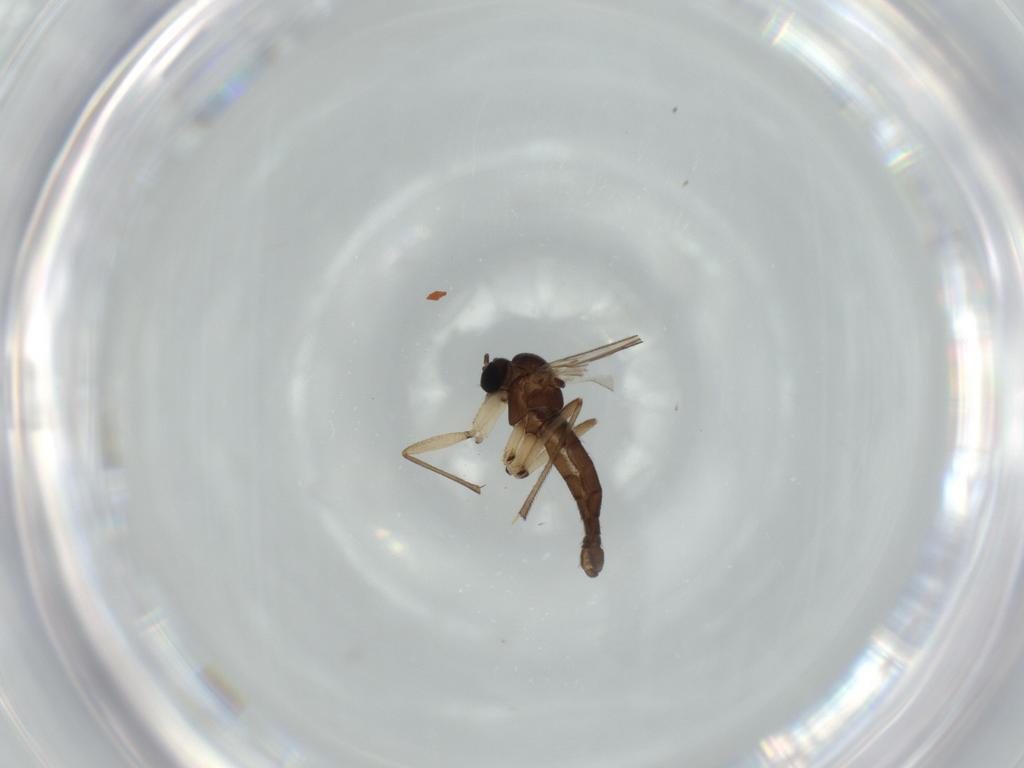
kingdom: Animalia
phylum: Arthropoda
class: Insecta
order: Diptera
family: Sciaridae
